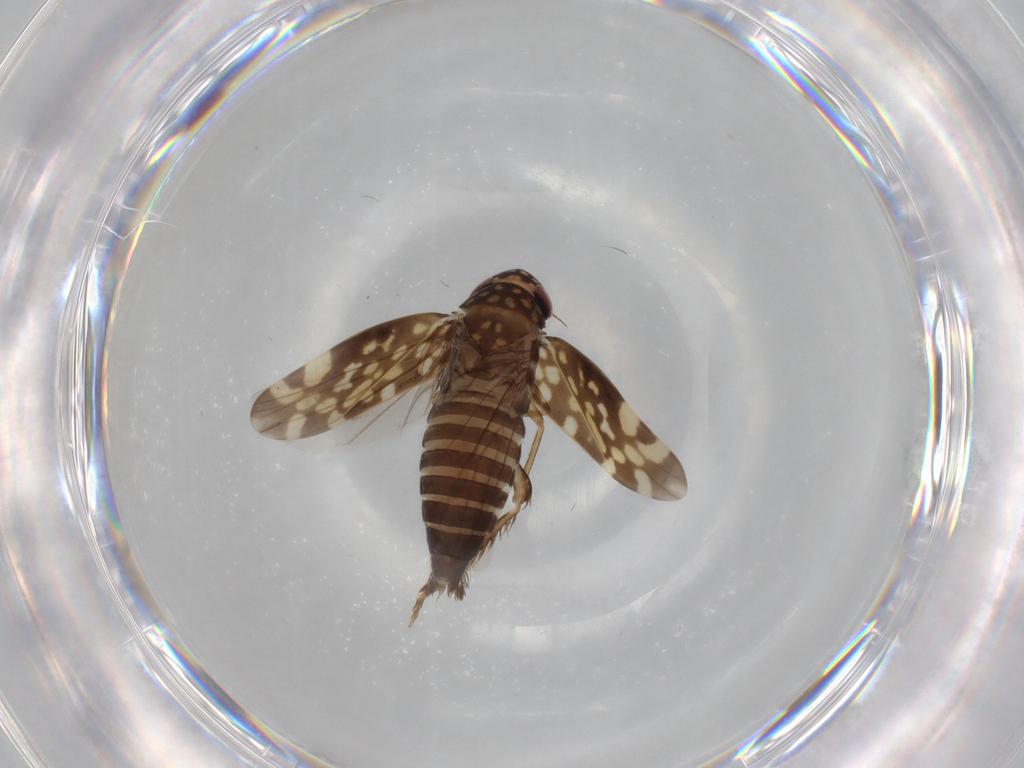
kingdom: Animalia
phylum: Arthropoda
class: Insecta
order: Hemiptera
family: Cicadellidae
